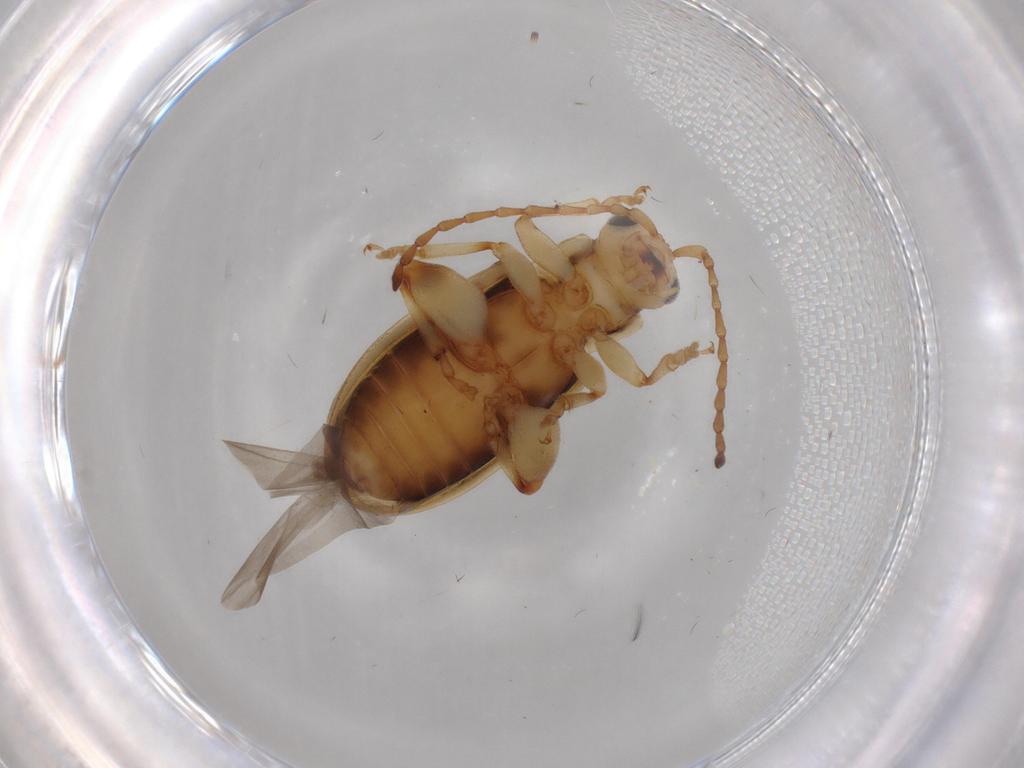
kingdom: Animalia
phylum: Arthropoda
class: Insecta
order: Coleoptera
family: Chrysomelidae
